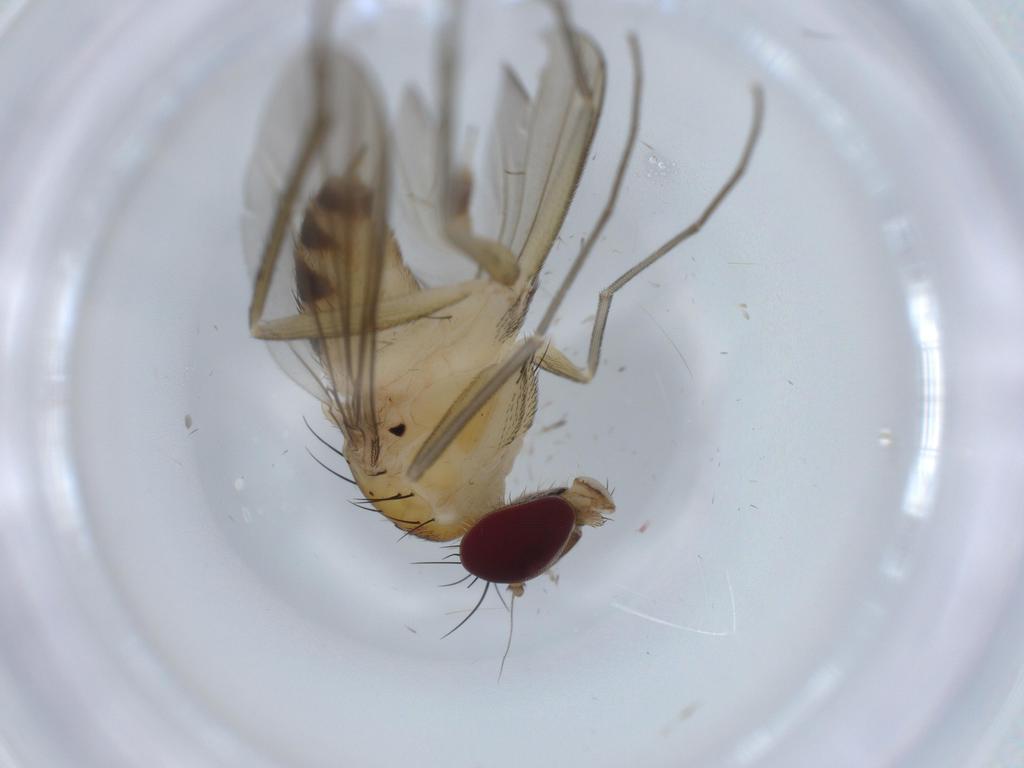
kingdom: Animalia
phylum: Arthropoda
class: Insecta
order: Diptera
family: Dolichopodidae
